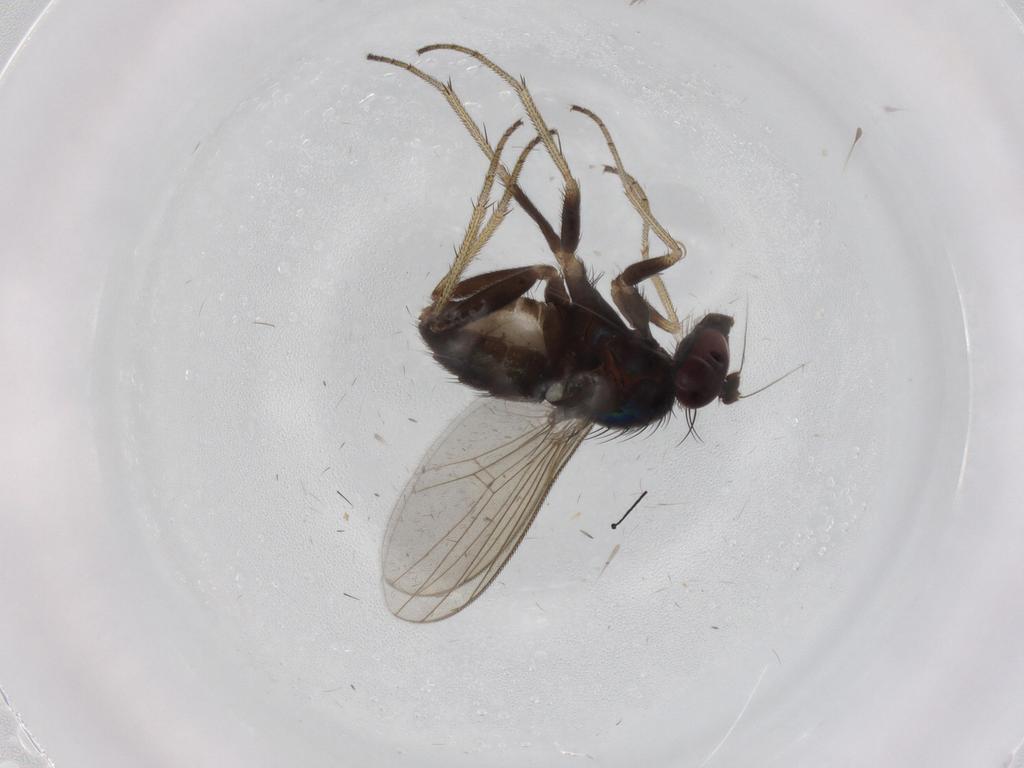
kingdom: Animalia
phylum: Arthropoda
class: Insecta
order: Diptera
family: Dolichopodidae
